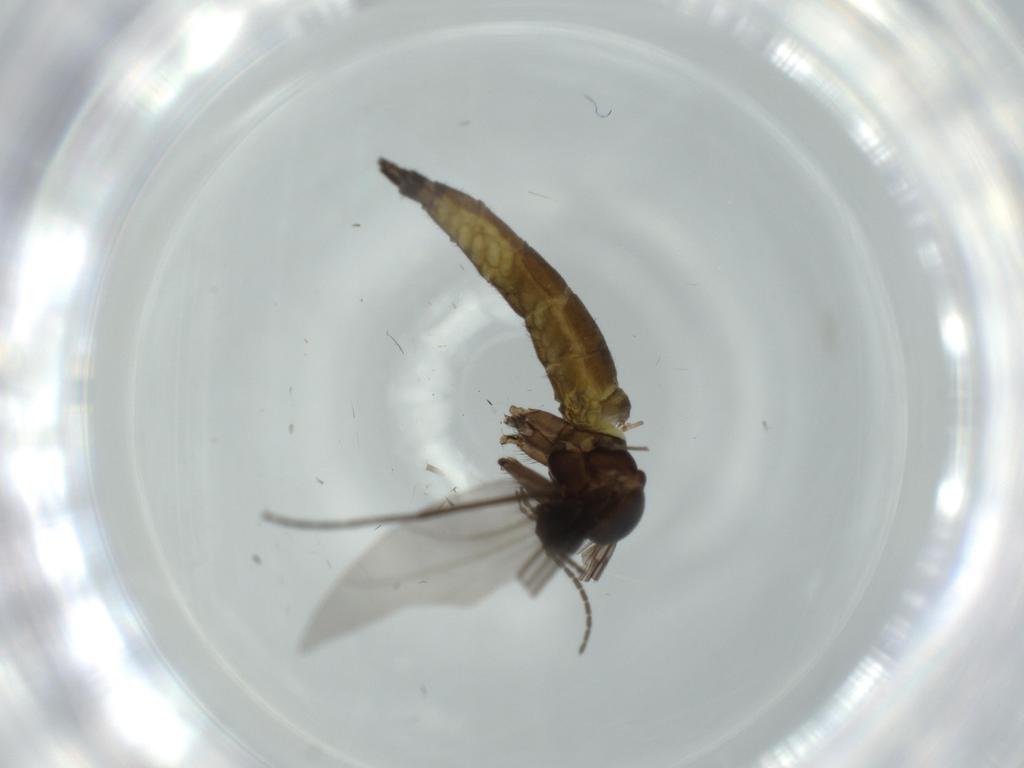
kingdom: Animalia
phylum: Arthropoda
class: Insecta
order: Diptera
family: Sciaridae
